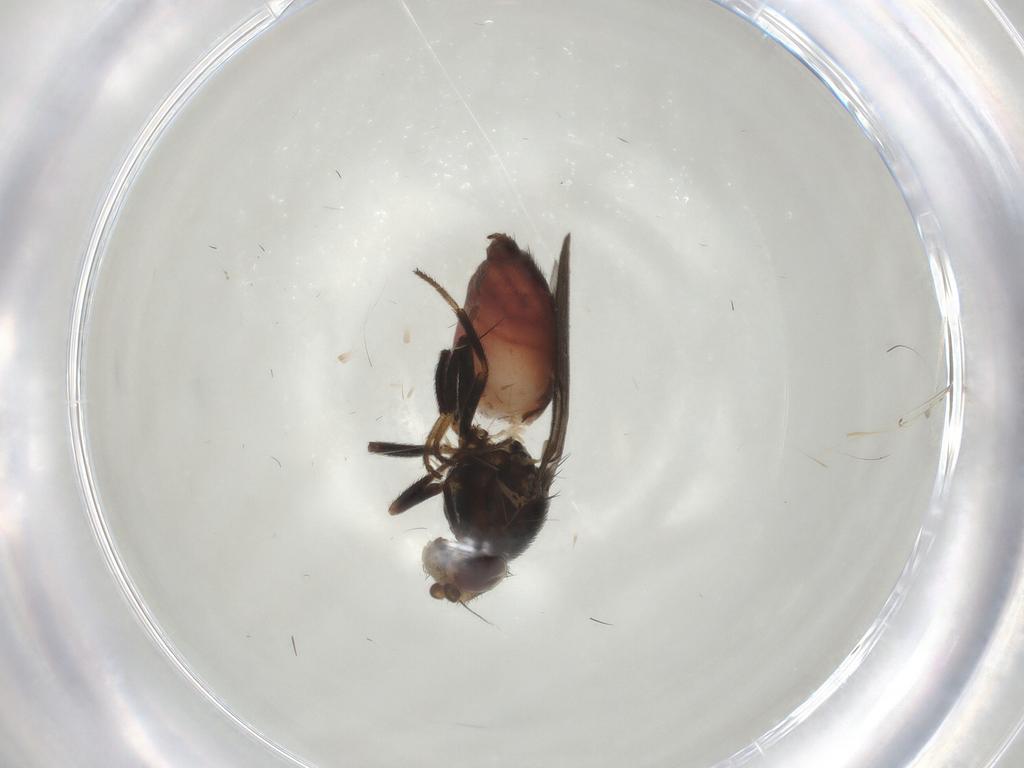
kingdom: Animalia
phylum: Arthropoda
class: Insecta
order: Diptera
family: Chloropidae
